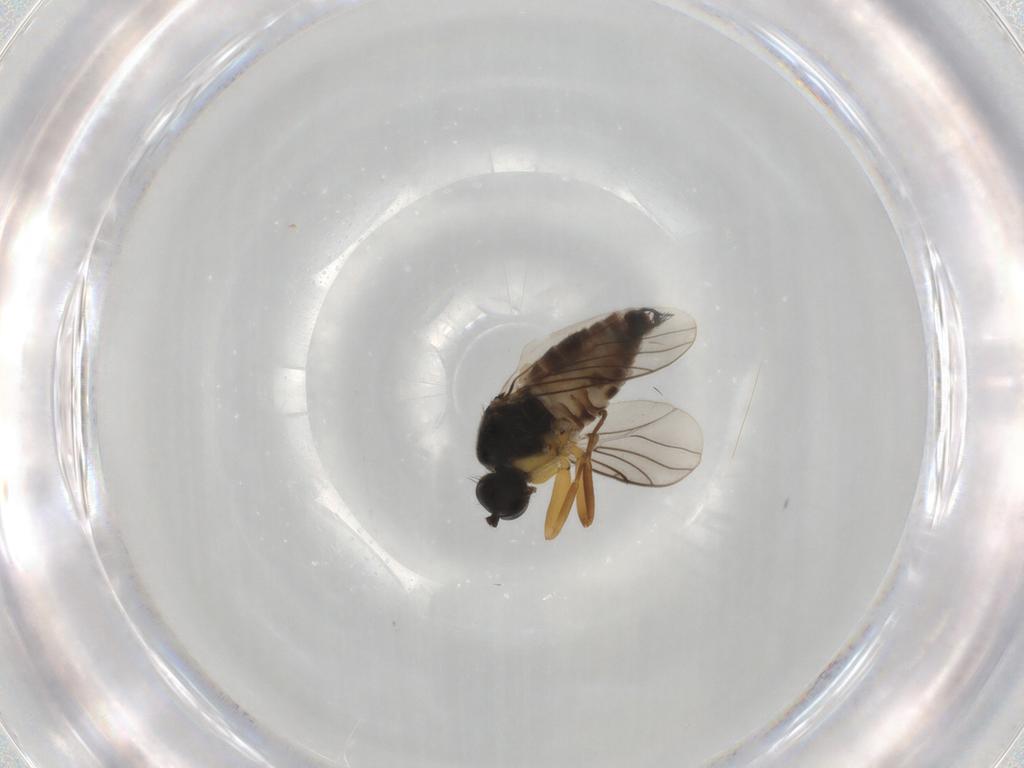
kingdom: Animalia
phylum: Arthropoda
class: Insecta
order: Diptera
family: Hybotidae
